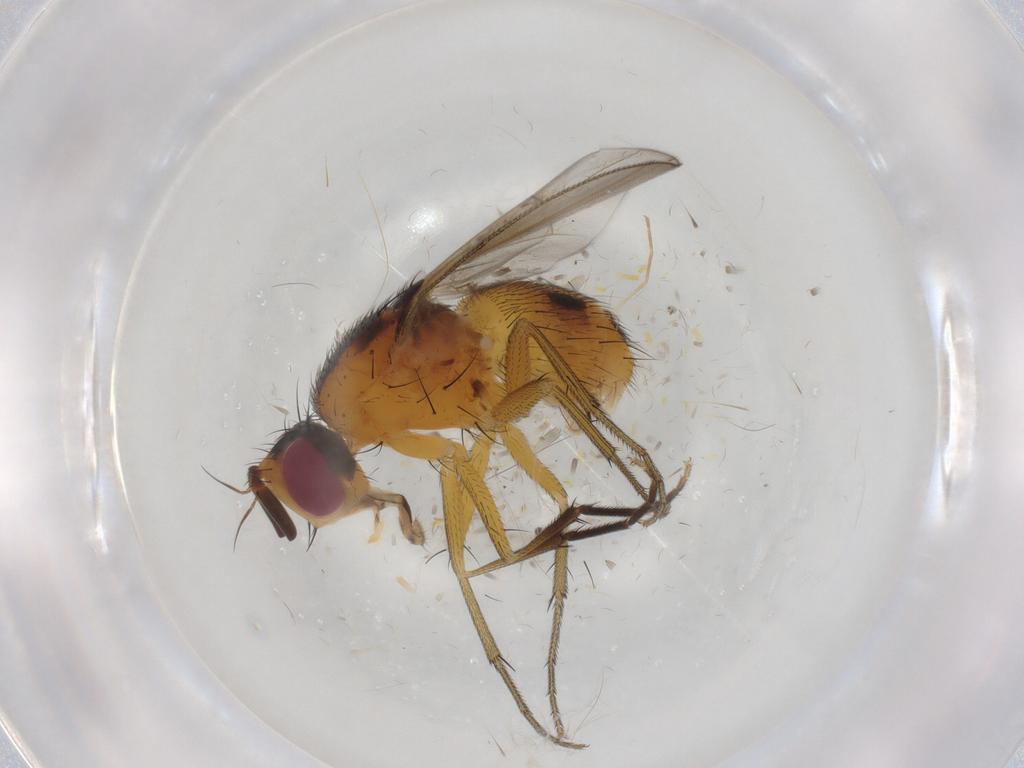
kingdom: Animalia
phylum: Arthropoda
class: Insecta
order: Diptera
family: Muscidae
